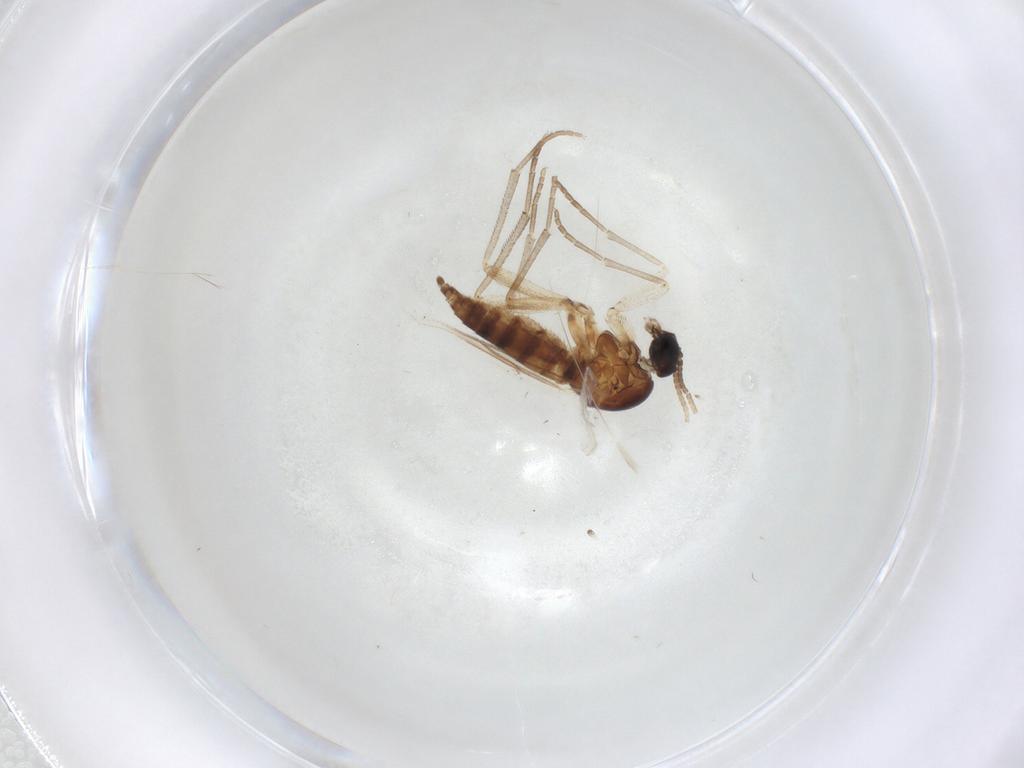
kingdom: Animalia
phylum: Arthropoda
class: Insecta
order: Diptera
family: Sciaridae
